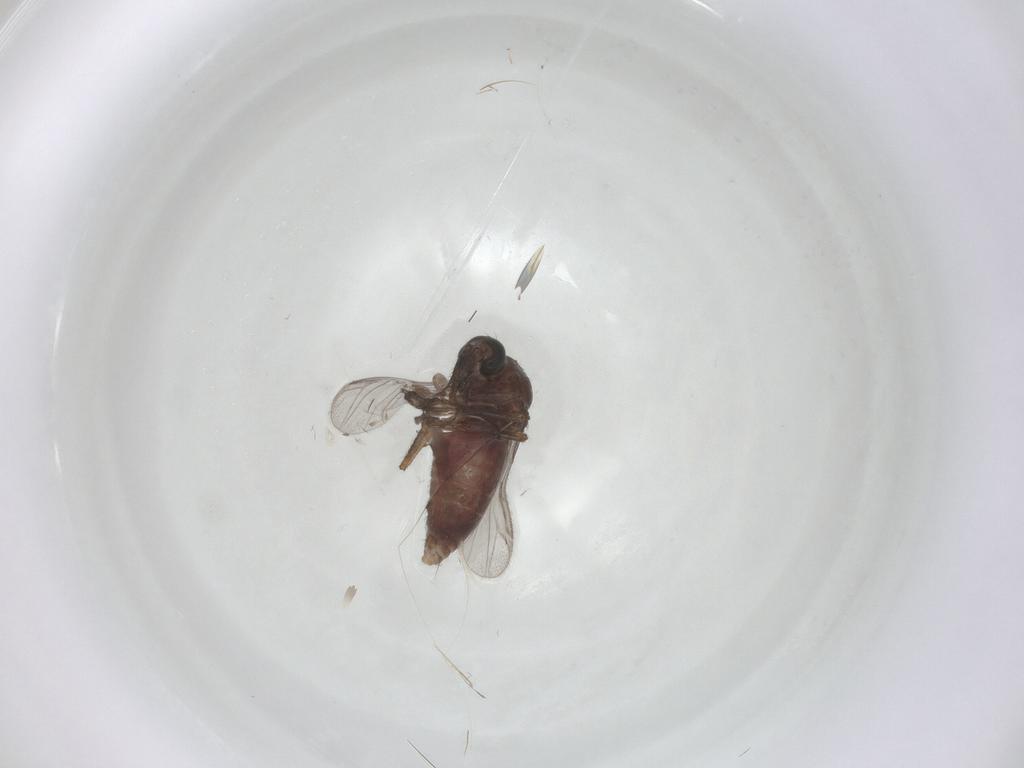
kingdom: Animalia
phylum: Arthropoda
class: Insecta
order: Diptera
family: Ceratopogonidae
